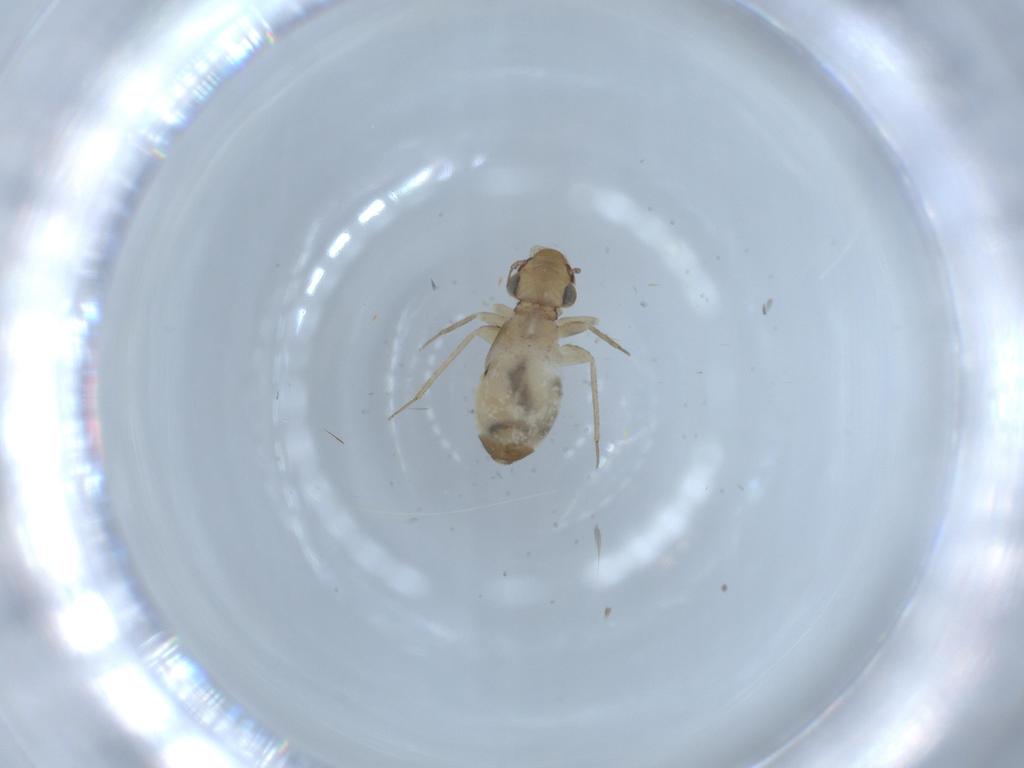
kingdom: Animalia
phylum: Arthropoda
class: Insecta
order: Psocodea
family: Lepidopsocidae
